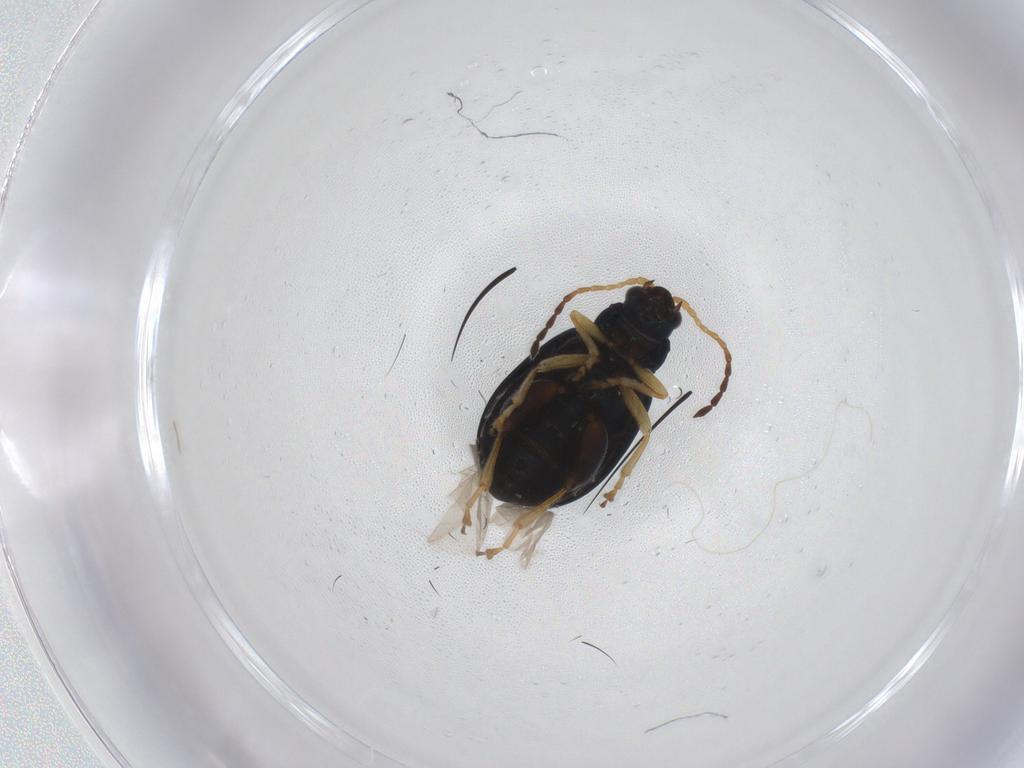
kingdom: Animalia
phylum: Arthropoda
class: Insecta
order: Coleoptera
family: Chrysomelidae
